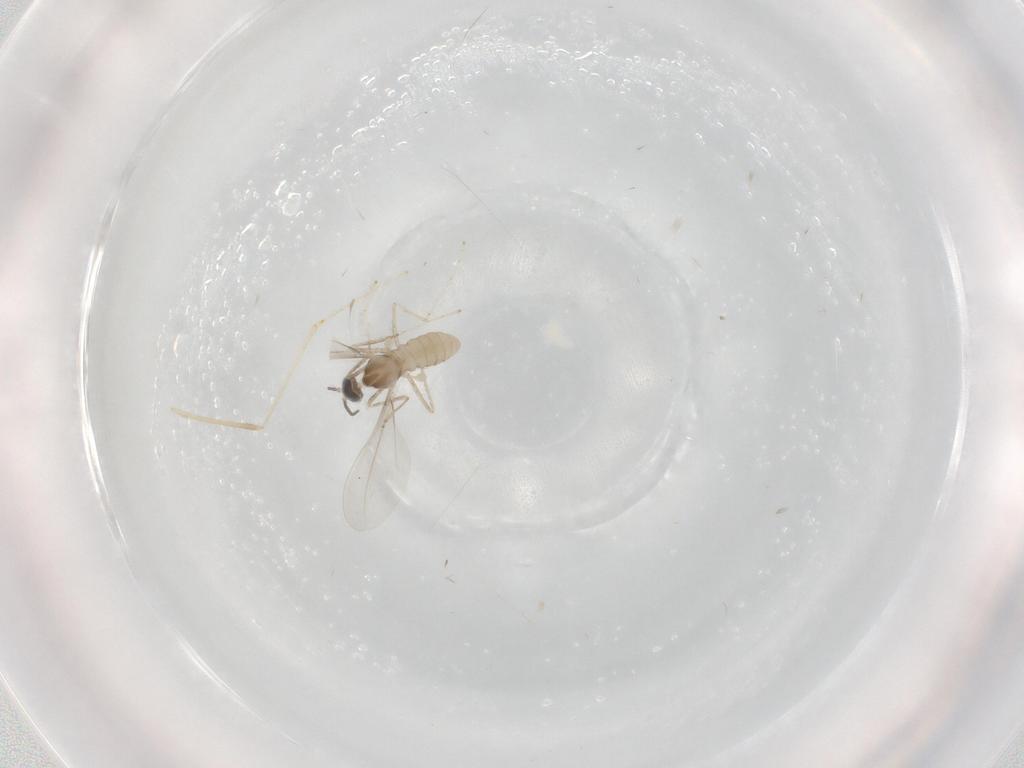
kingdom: Animalia
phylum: Arthropoda
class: Insecta
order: Diptera
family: Cecidomyiidae
